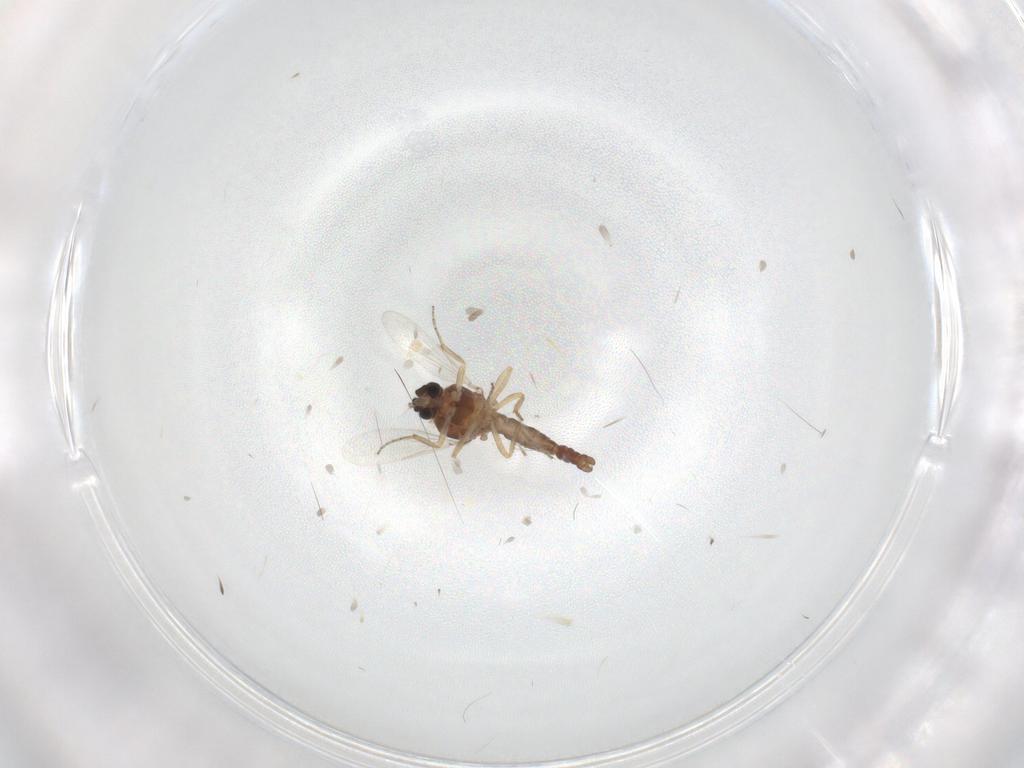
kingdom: Animalia
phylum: Arthropoda
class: Insecta
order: Diptera
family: Ceratopogonidae
